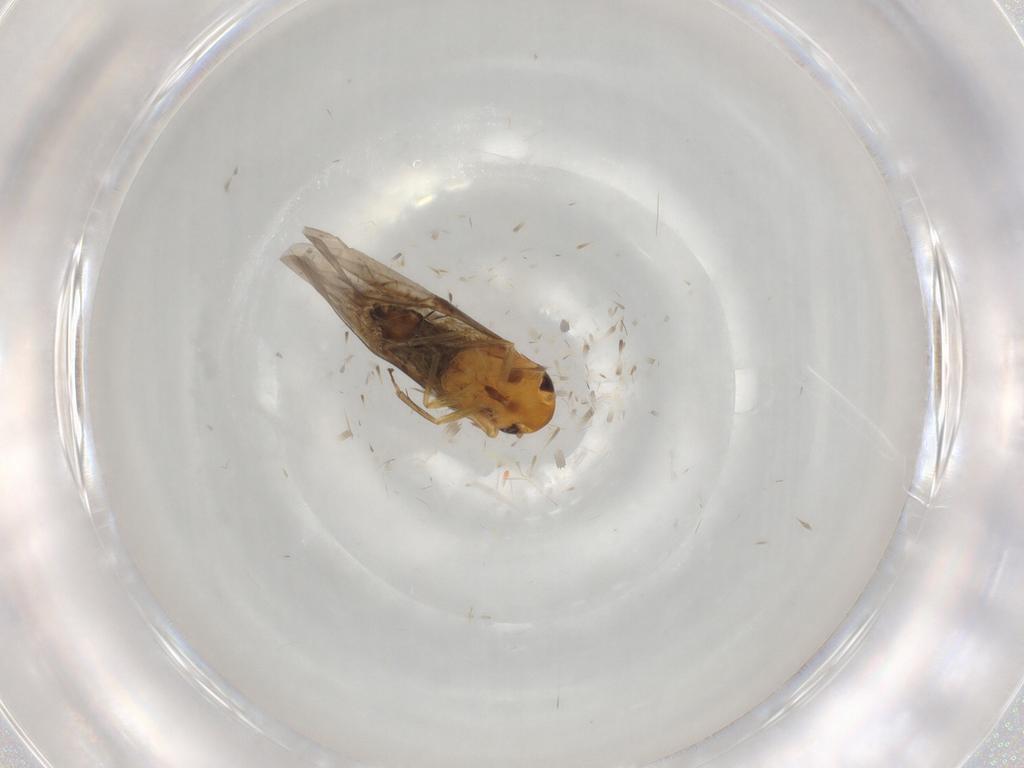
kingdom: Animalia
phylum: Arthropoda
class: Insecta
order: Hemiptera
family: Cicadellidae
